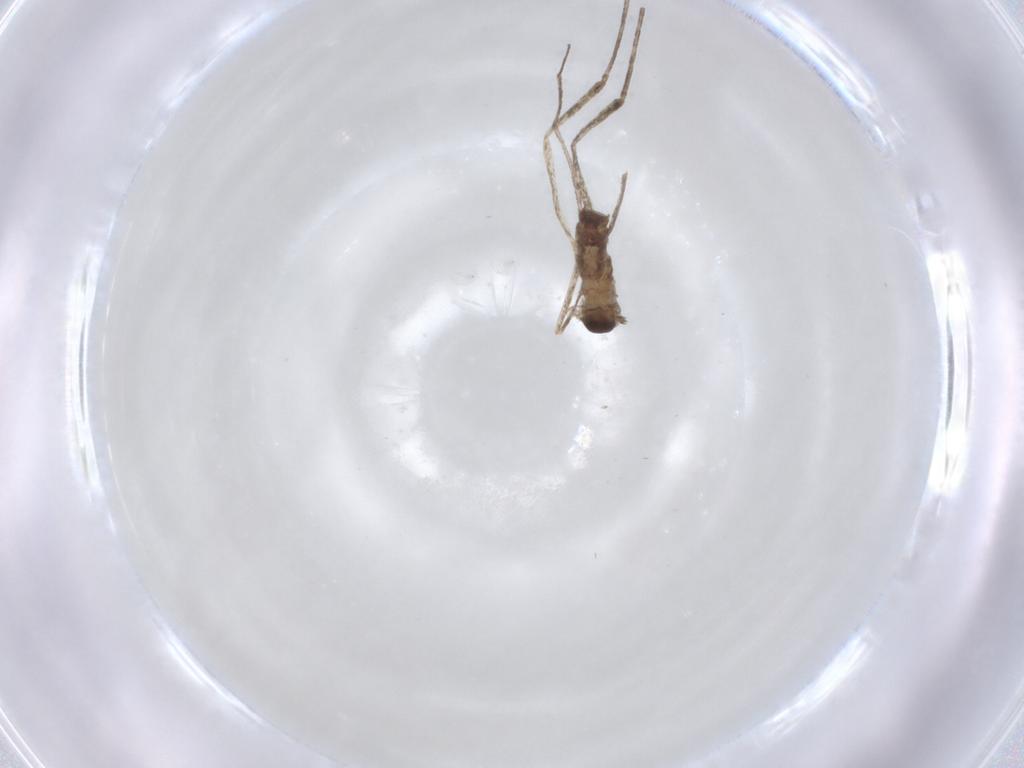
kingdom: Animalia
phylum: Arthropoda
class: Insecta
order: Diptera
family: Cecidomyiidae
